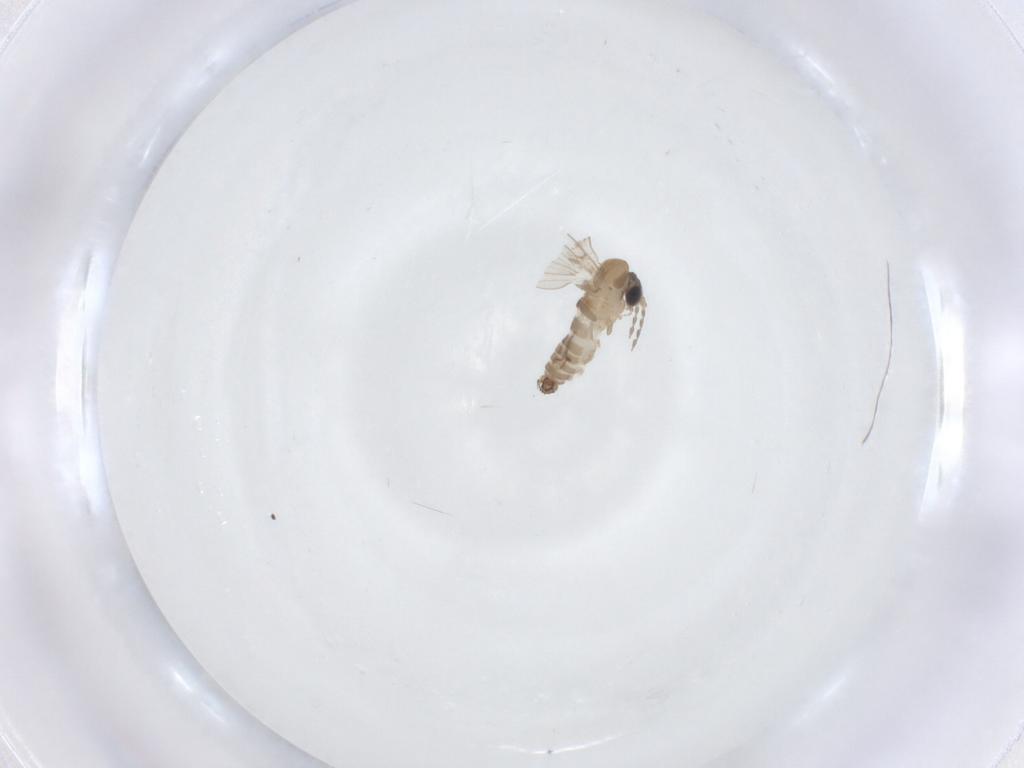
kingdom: Animalia
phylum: Arthropoda
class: Insecta
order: Diptera
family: Psychodidae
